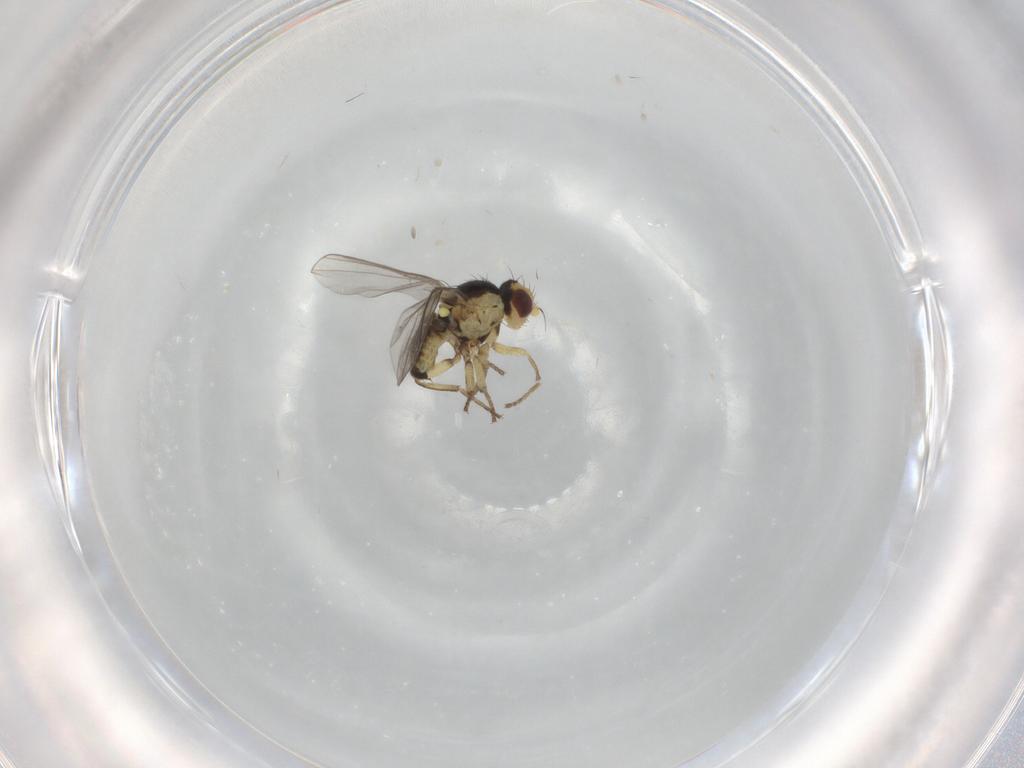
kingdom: Animalia
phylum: Arthropoda
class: Insecta
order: Diptera
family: Agromyzidae
